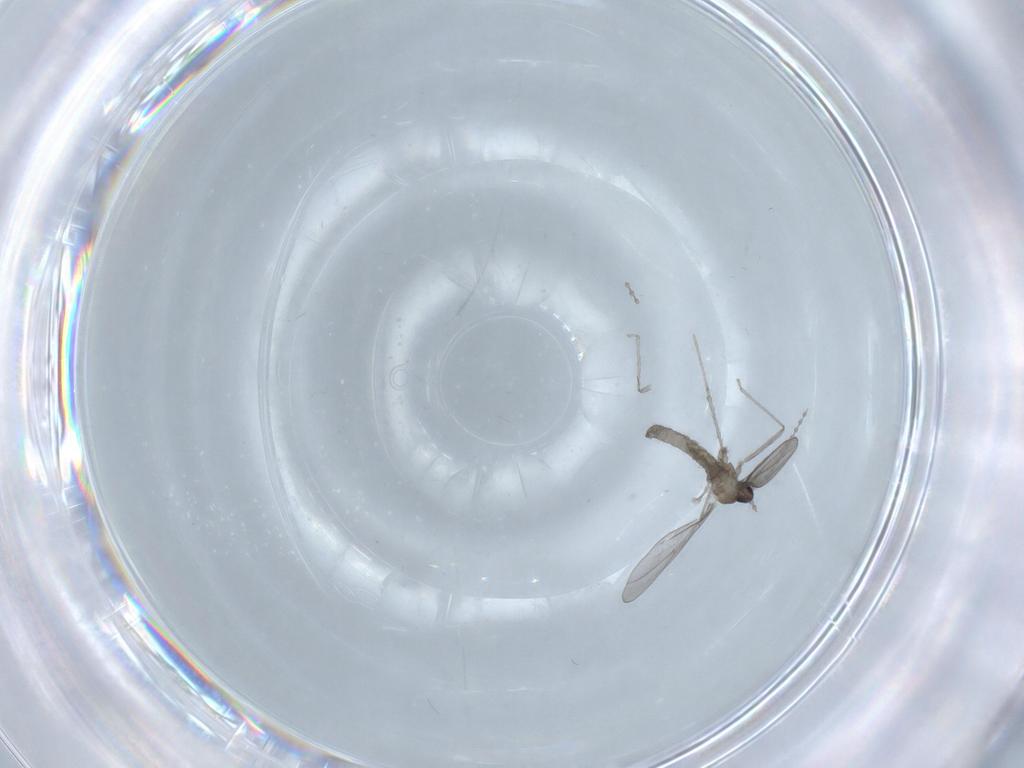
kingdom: Animalia
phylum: Arthropoda
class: Insecta
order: Diptera
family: Cecidomyiidae
